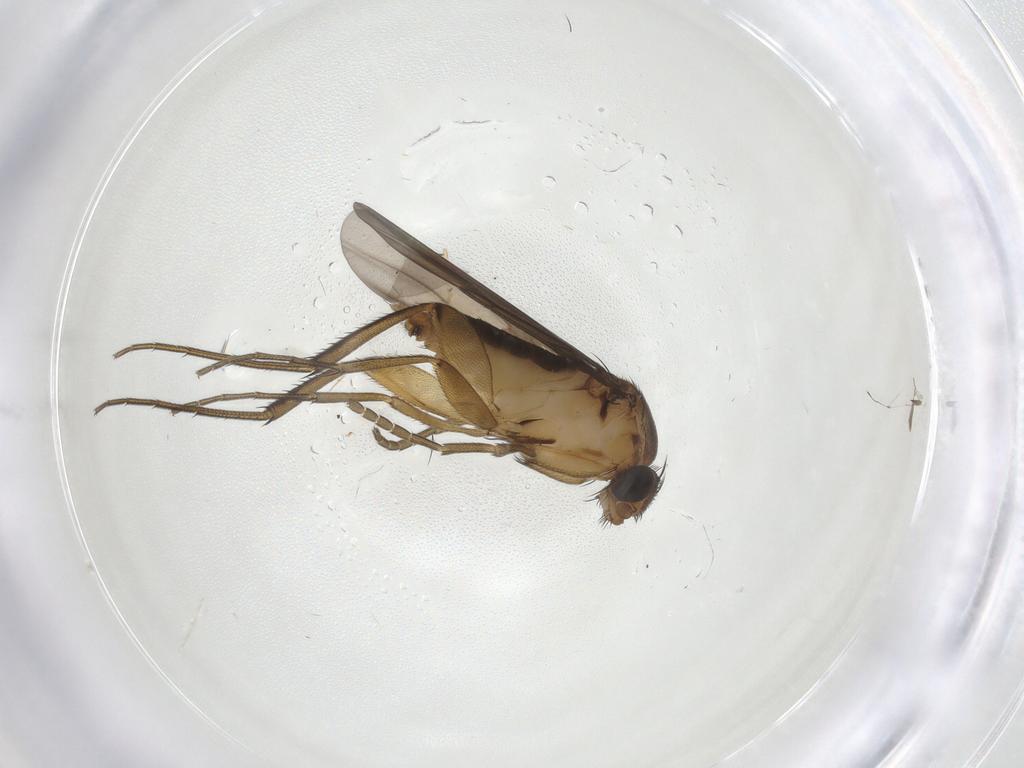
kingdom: Animalia
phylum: Arthropoda
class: Insecta
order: Diptera
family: Phoridae
